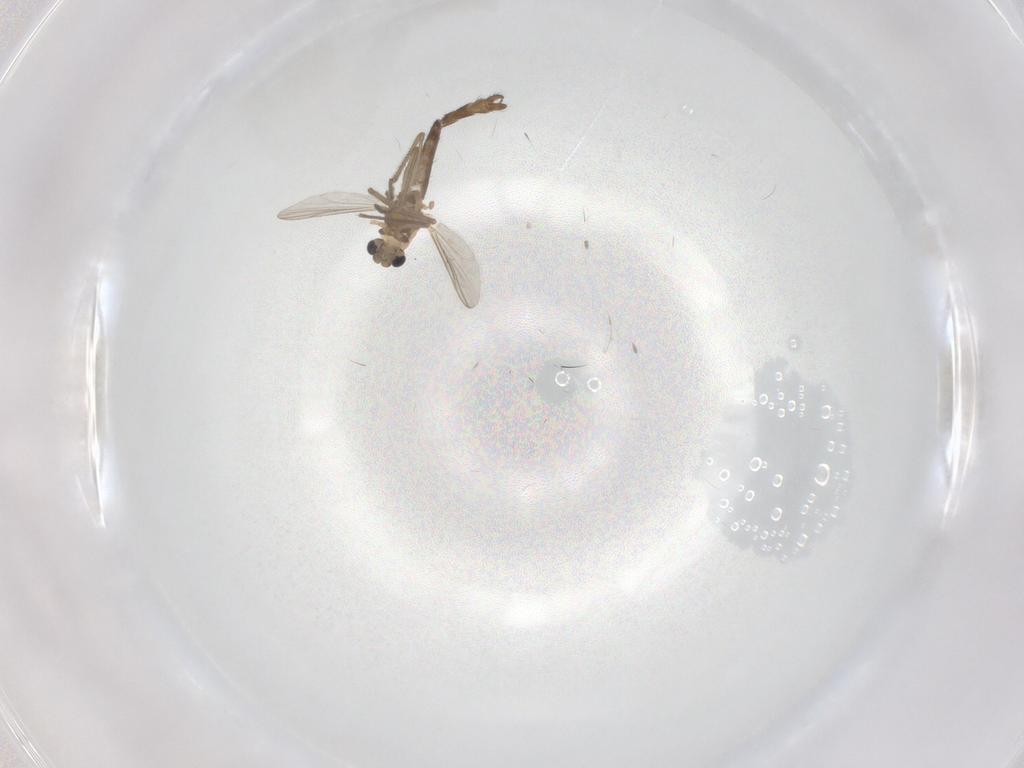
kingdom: Animalia
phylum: Arthropoda
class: Insecta
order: Diptera
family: Chironomidae
